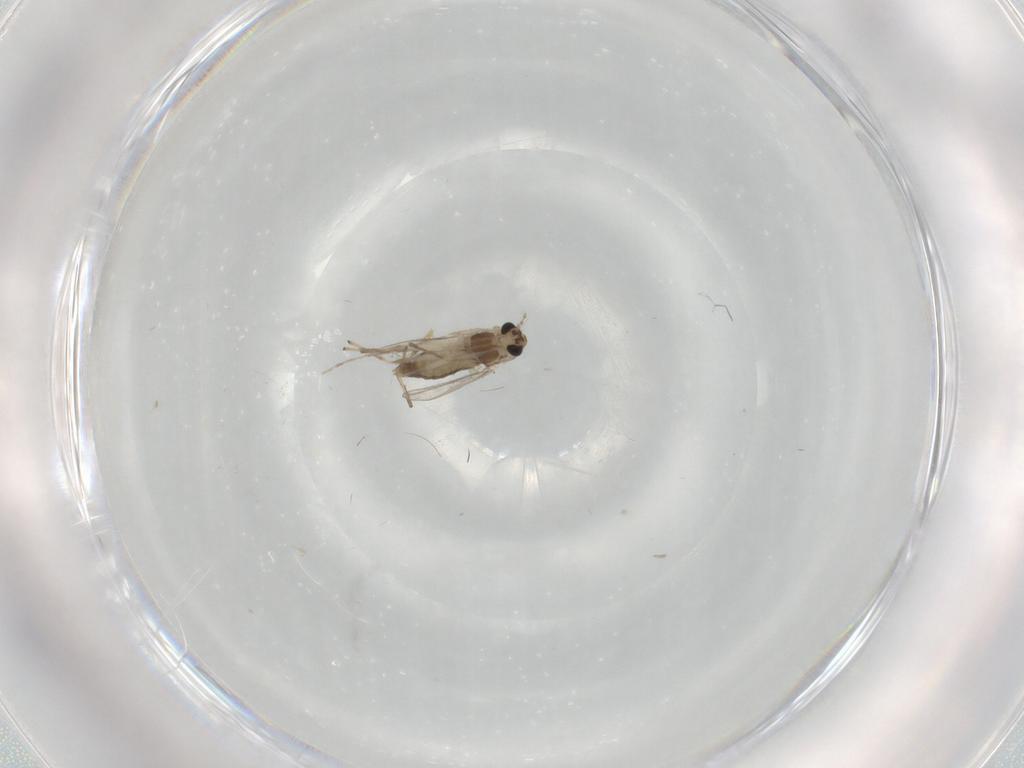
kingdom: Animalia
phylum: Arthropoda
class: Insecta
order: Diptera
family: Chironomidae
